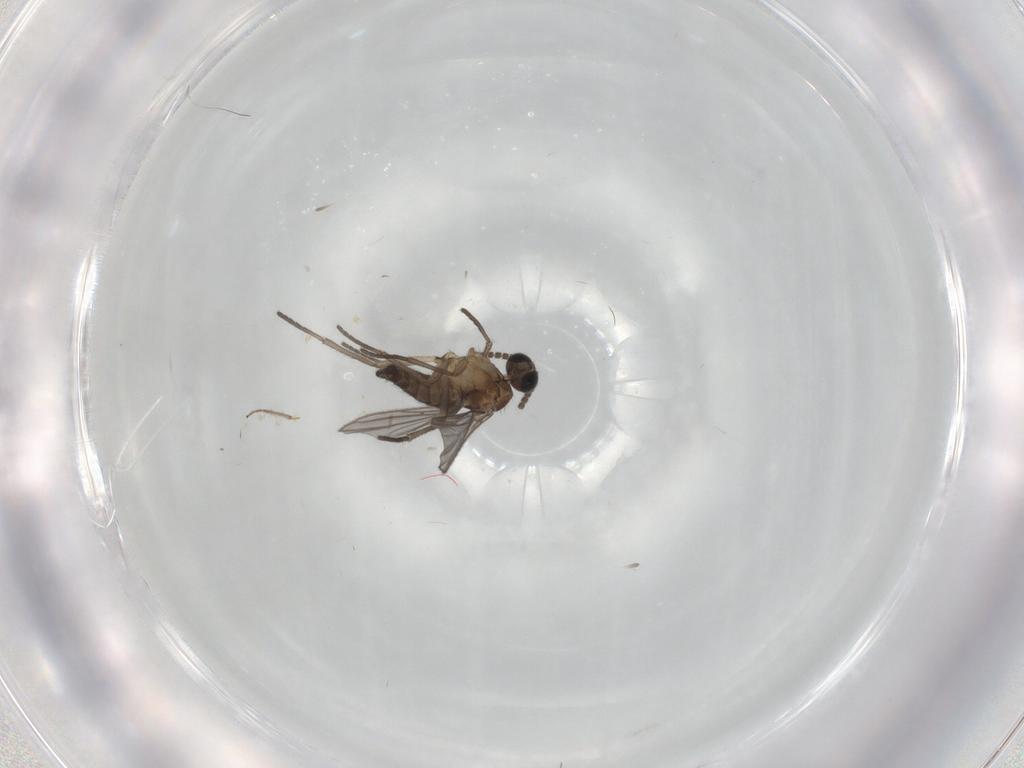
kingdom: Animalia
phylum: Arthropoda
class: Insecta
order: Diptera
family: Sciaridae
